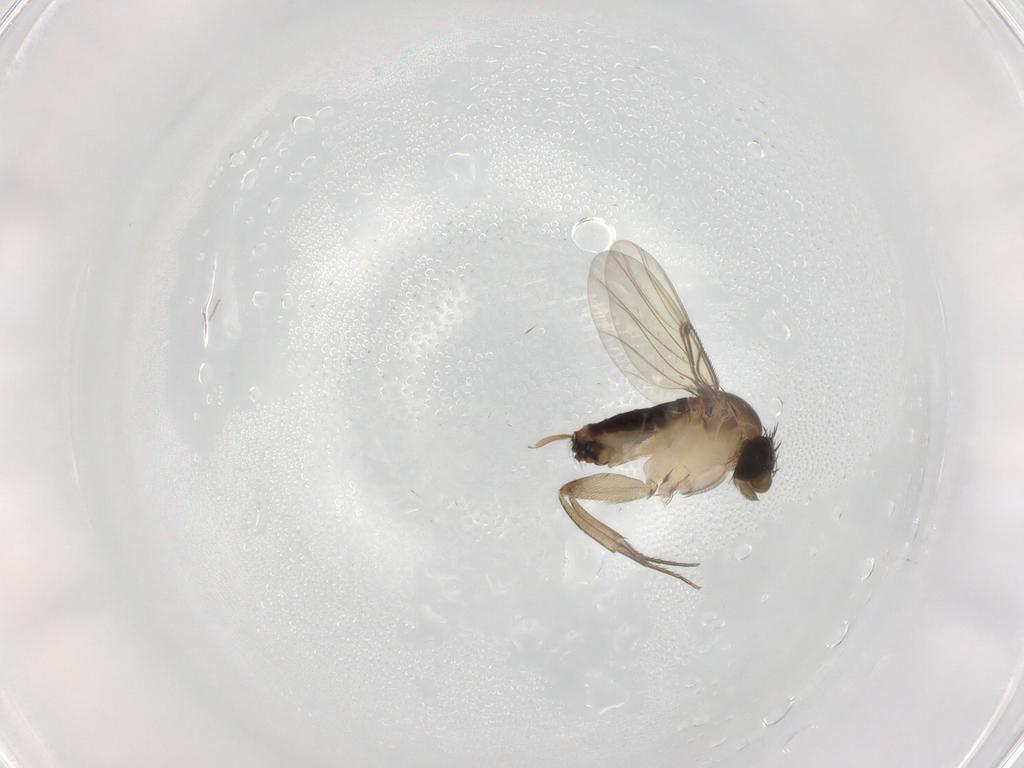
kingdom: Animalia
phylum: Arthropoda
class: Insecta
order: Diptera
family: Phoridae
